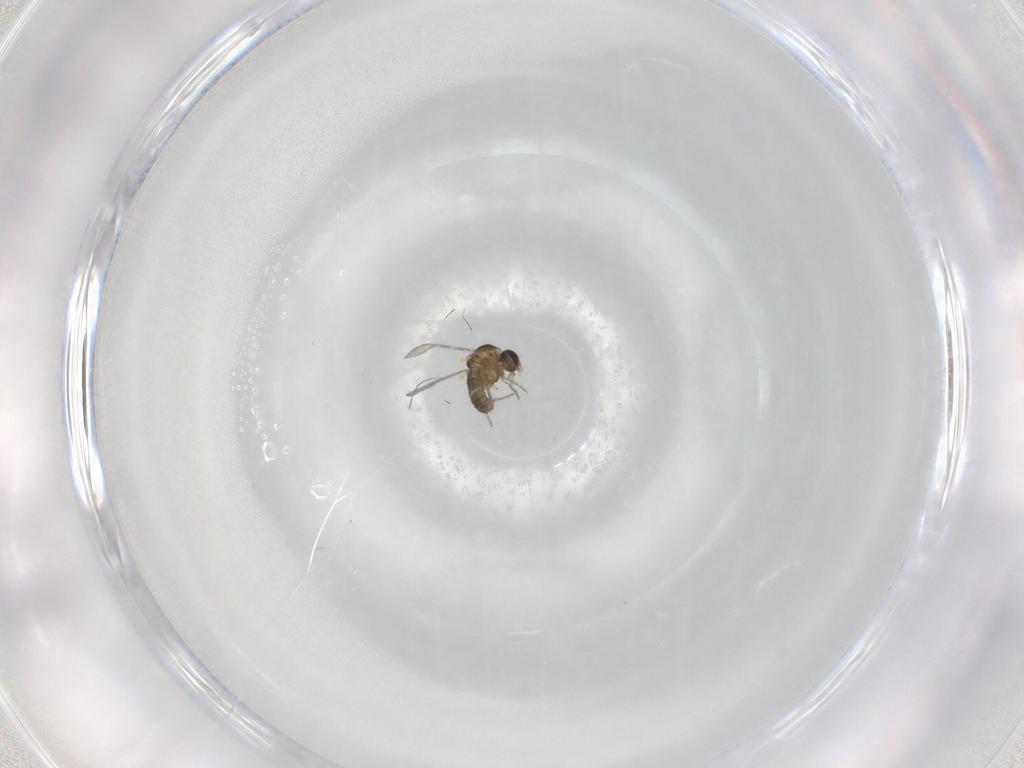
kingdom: Animalia
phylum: Arthropoda
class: Insecta
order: Diptera
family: Ceratopogonidae
